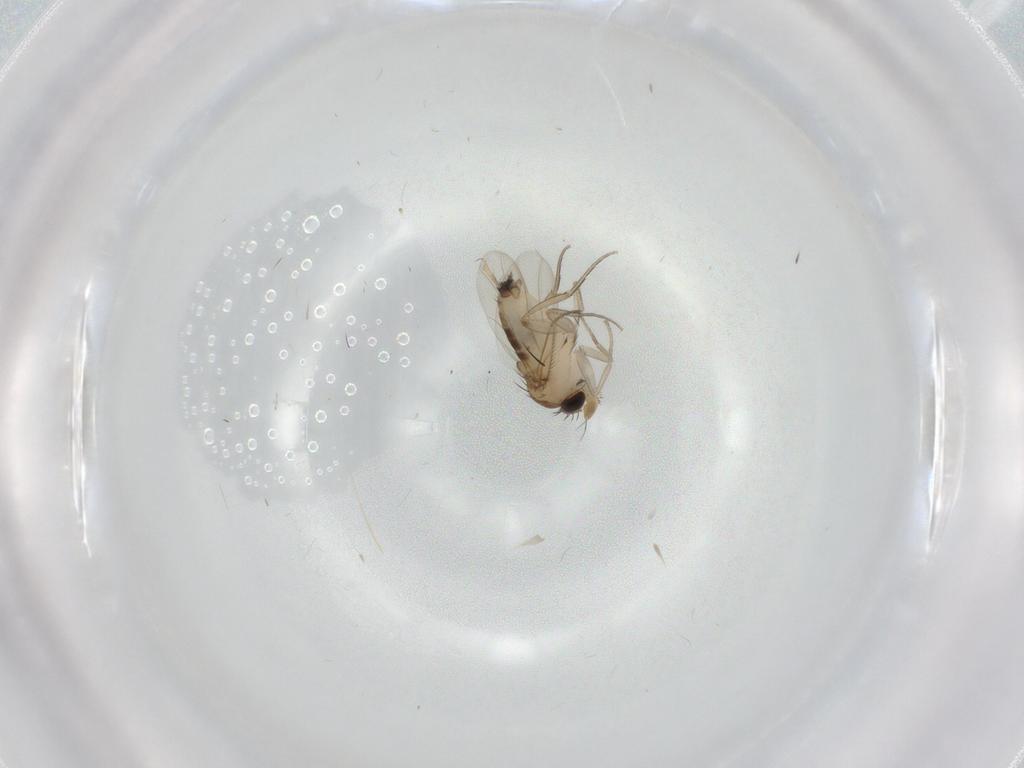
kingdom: Animalia
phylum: Arthropoda
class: Insecta
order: Diptera
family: Phoridae
